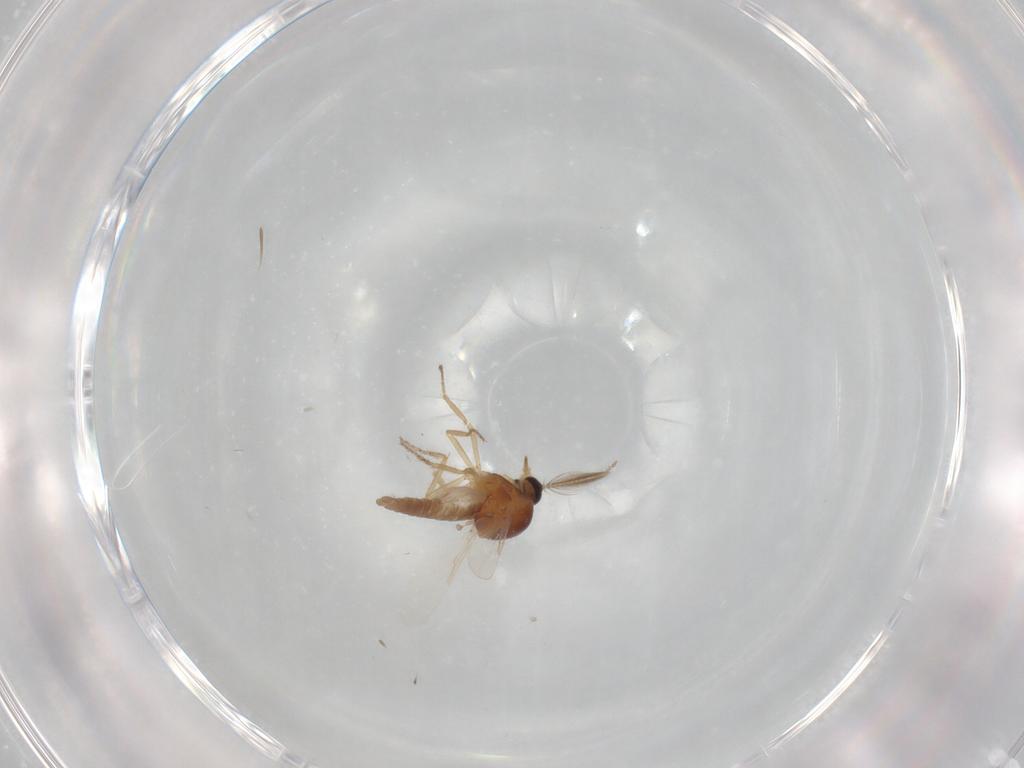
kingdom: Animalia
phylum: Arthropoda
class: Insecta
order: Diptera
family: Ceratopogonidae
